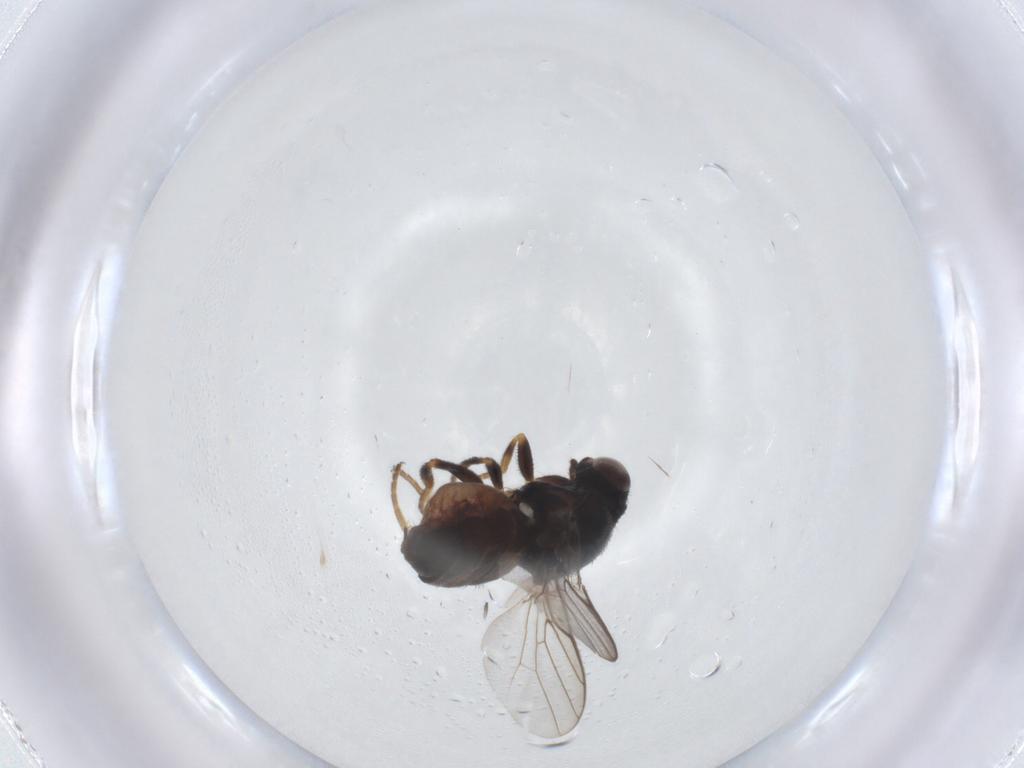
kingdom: Animalia
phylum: Arthropoda
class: Insecta
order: Diptera
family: Chloropidae
